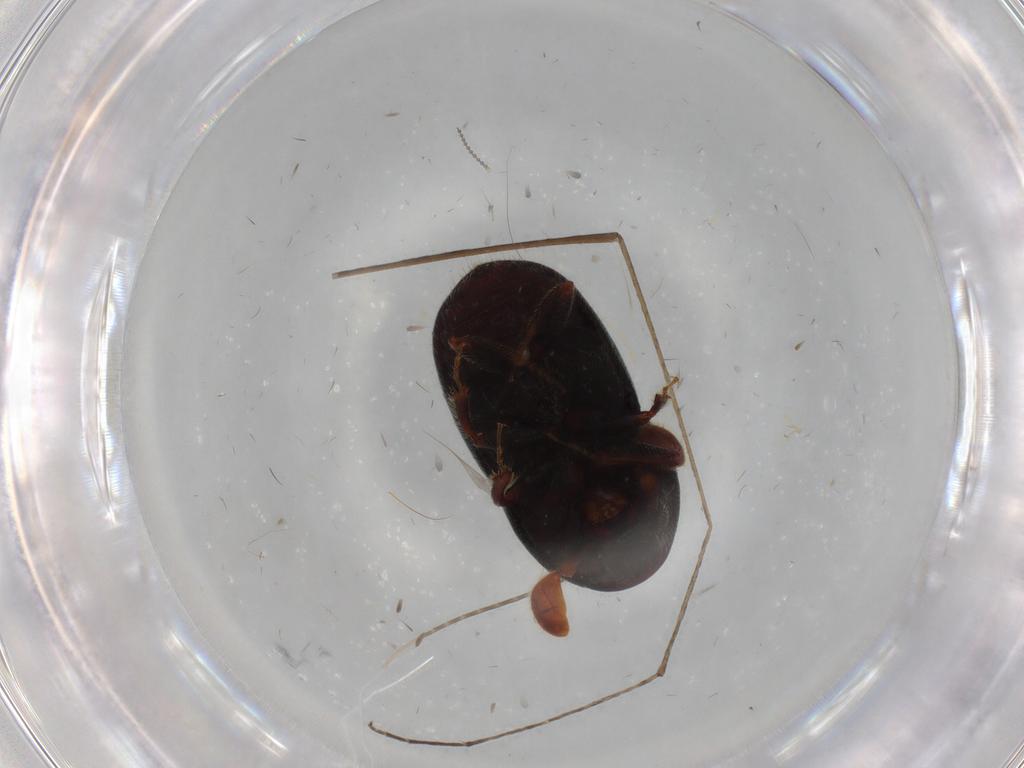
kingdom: Animalia
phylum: Arthropoda
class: Insecta
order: Coleoptera
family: Curculionidae
